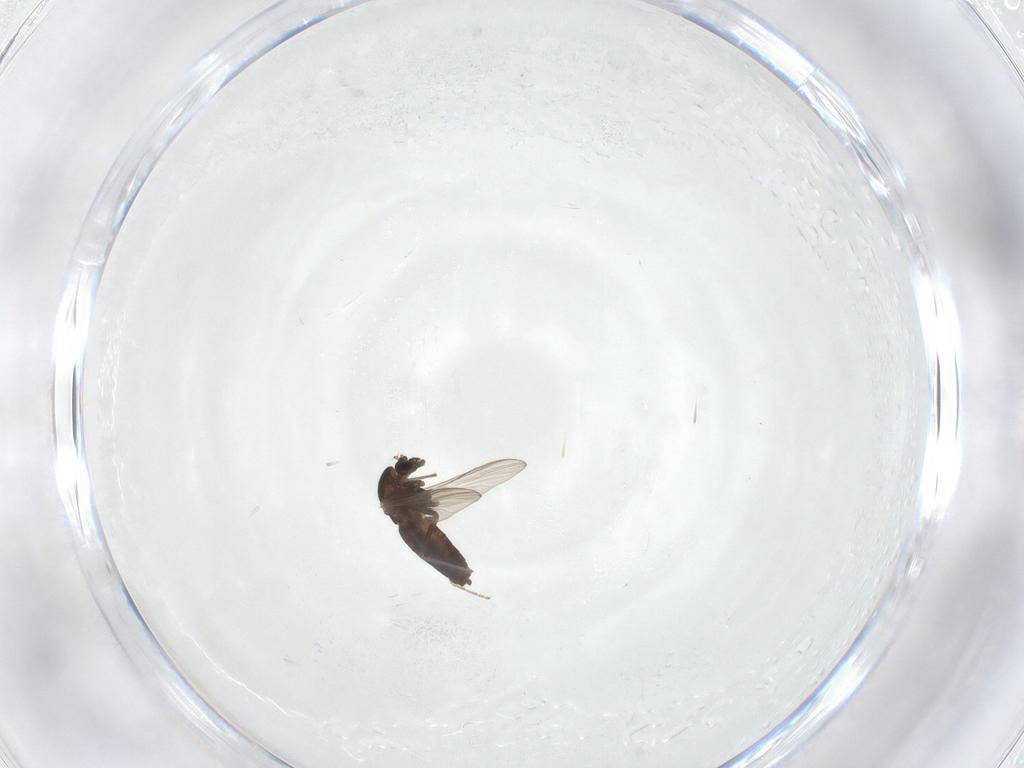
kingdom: Animalia
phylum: Arthropoda
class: Insecta
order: Diptera
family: Chironomidae
